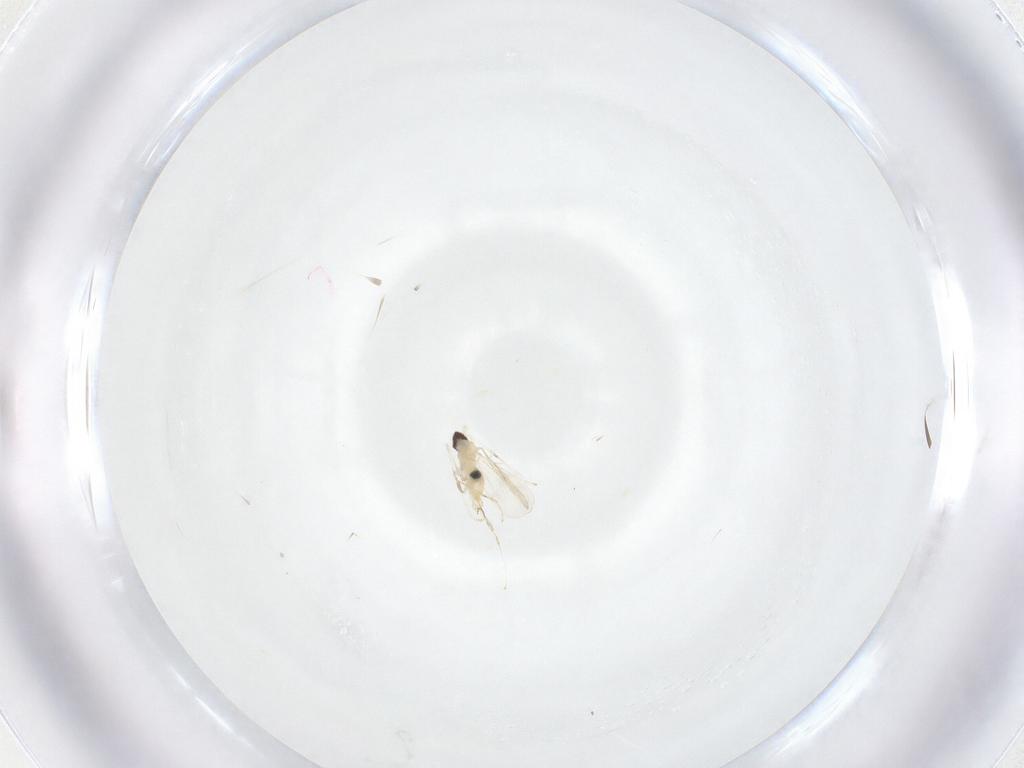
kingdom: Animalia
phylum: Arthropoda
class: Insecta
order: Diptera
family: Cecidomyiidae
